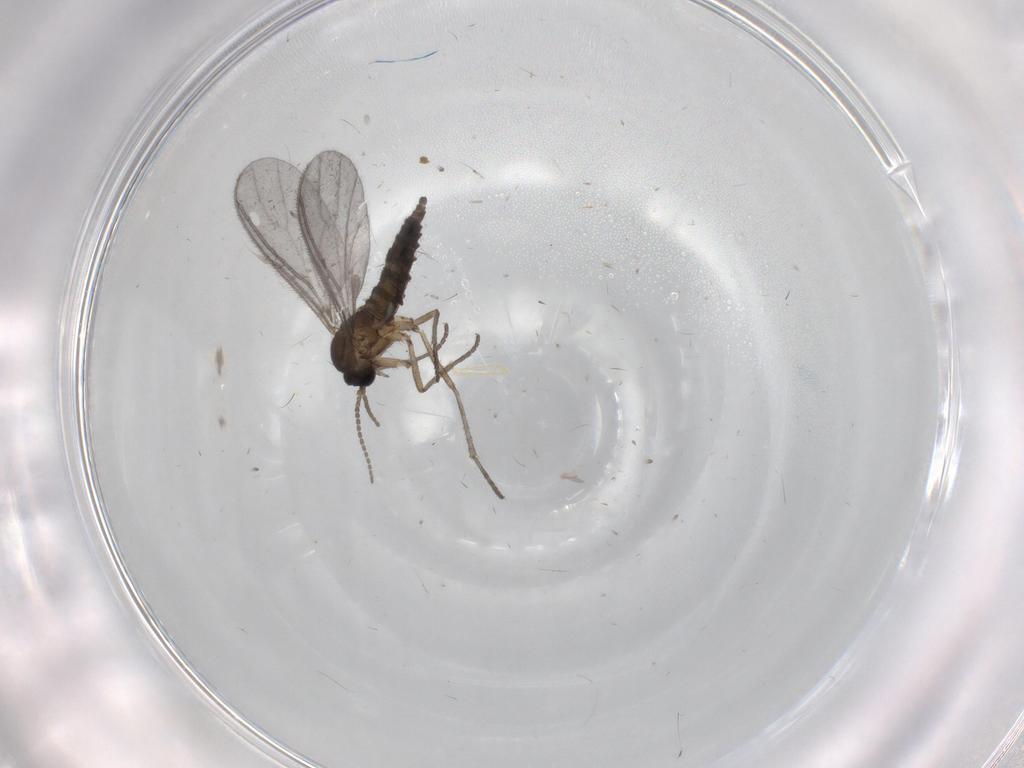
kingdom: Animalia
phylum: Arthropoda
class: Insecta
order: Diptera
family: Sciaridae
